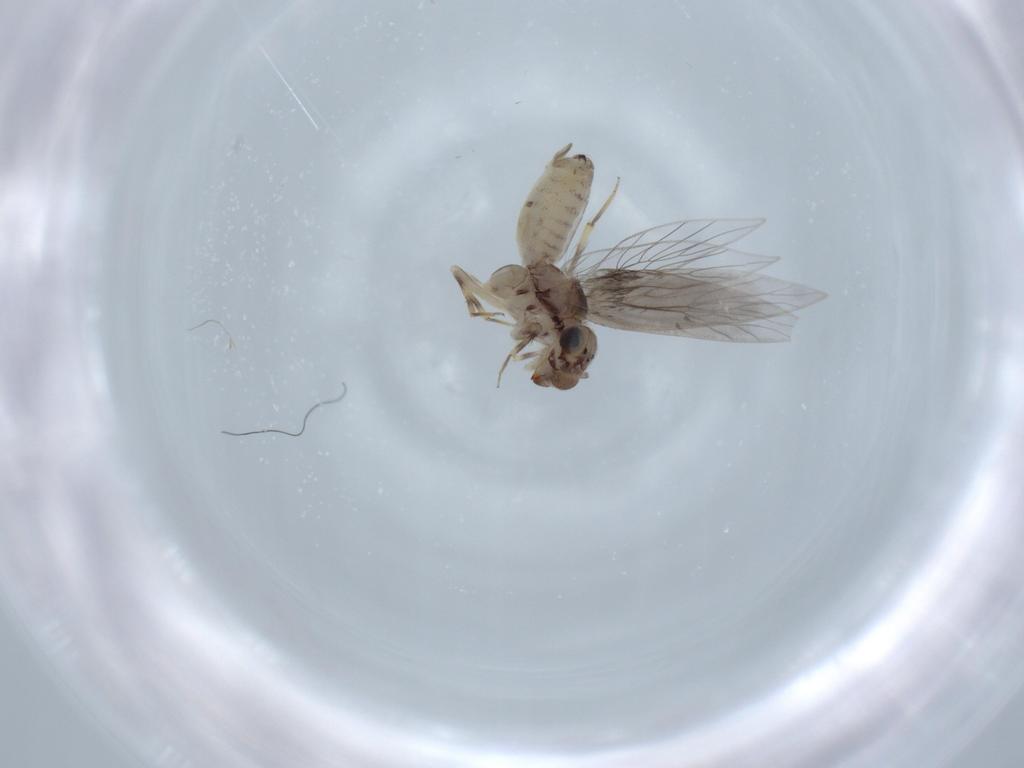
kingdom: Animalia
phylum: Arthropoda
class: Insecta
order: Psocodea
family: Lepidopsocidae
